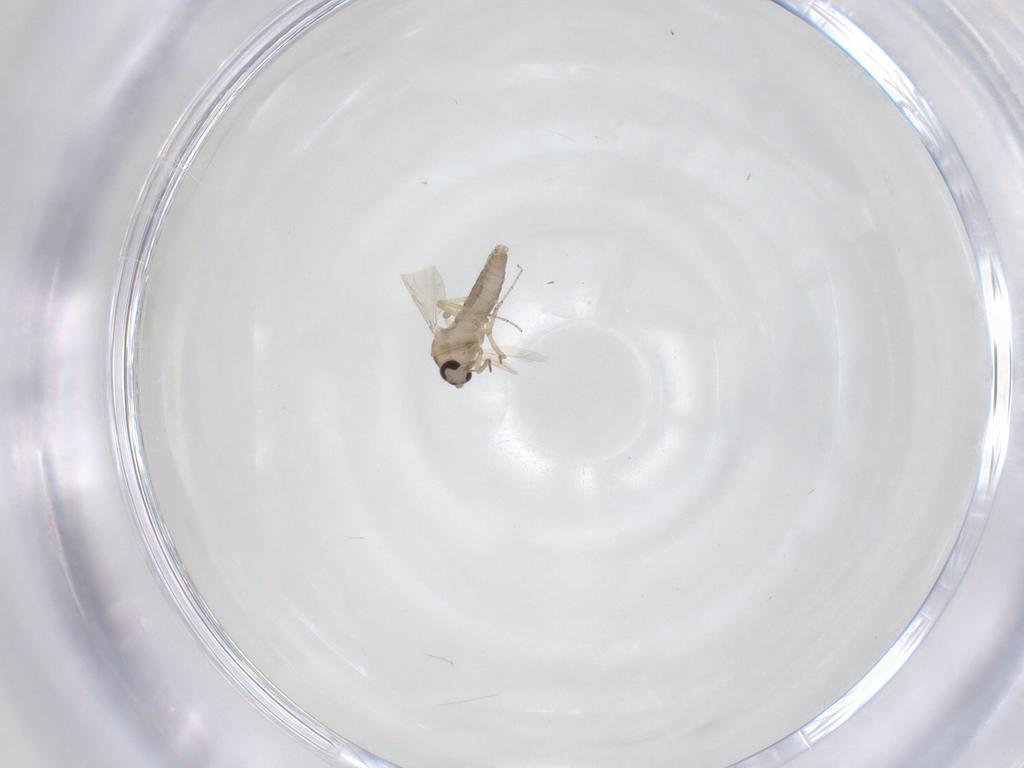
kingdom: Animalia
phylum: Arthropoda
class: Insecta
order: Diptera
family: Ceratopogonidae
